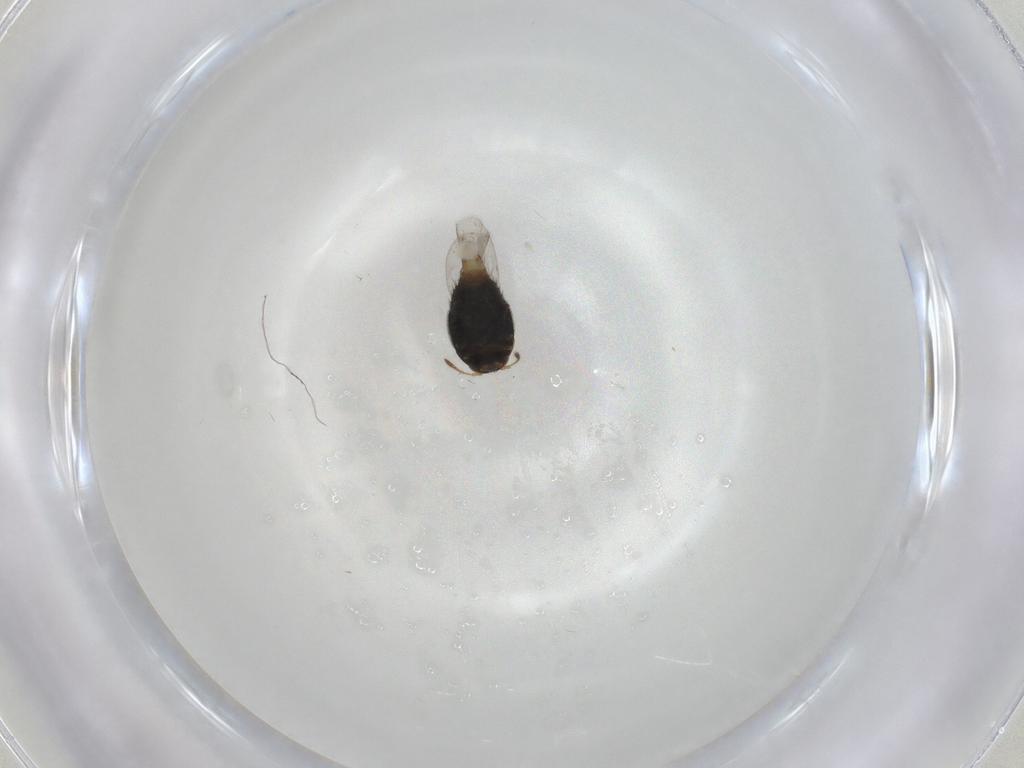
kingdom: Animalia
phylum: Arthropoda
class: Insecta
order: Coleoptera
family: Staphylinidae
